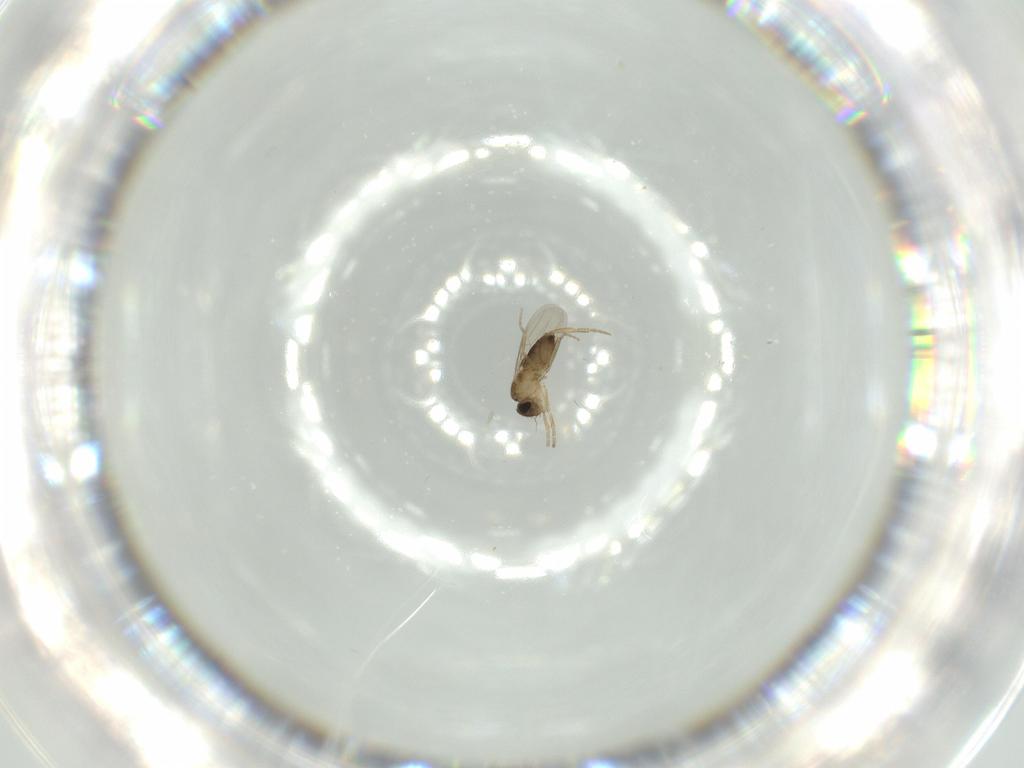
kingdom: Animalia
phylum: Arthropoda
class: Insecta
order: Diptera
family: Phoridae
